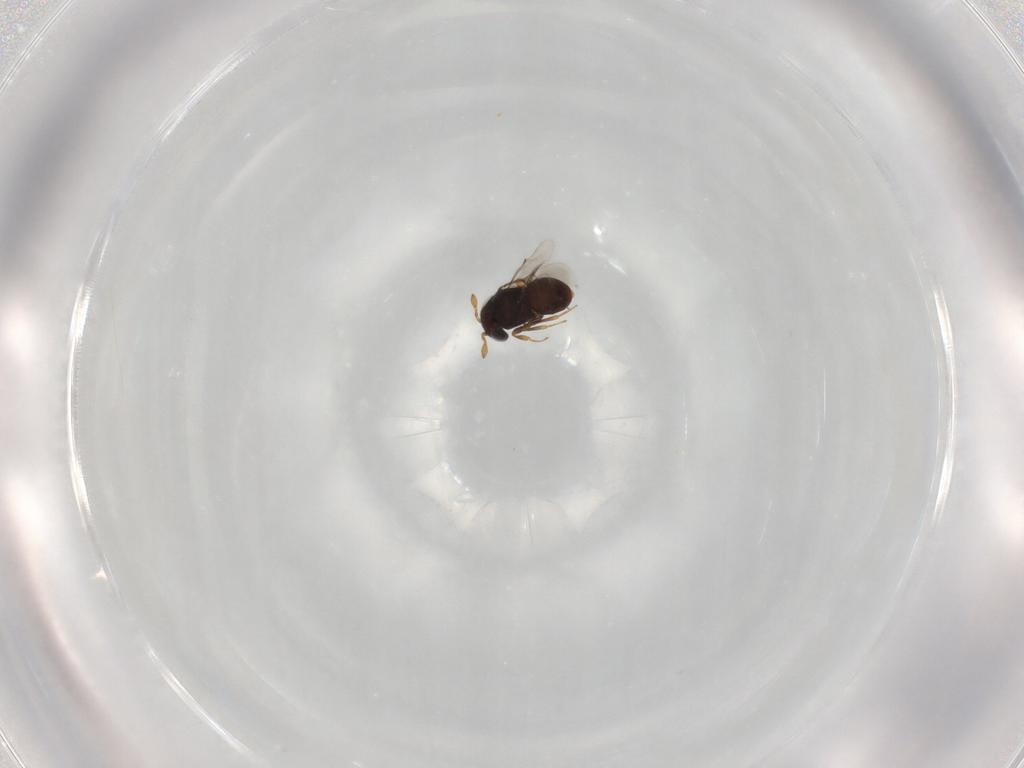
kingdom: Animalia
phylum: Arthropoda
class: Insecta
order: Hymenoptera
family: Scelionidae
